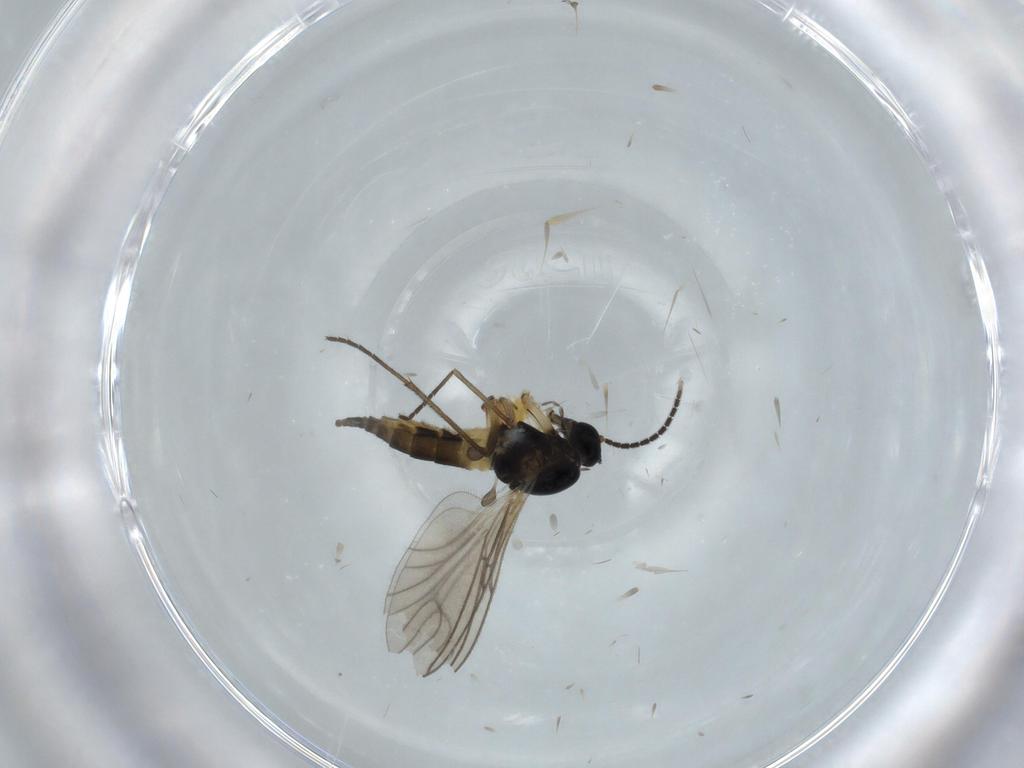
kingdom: Animalia
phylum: Arthropoda
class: Insecta
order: Diptera
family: Sciaridae
